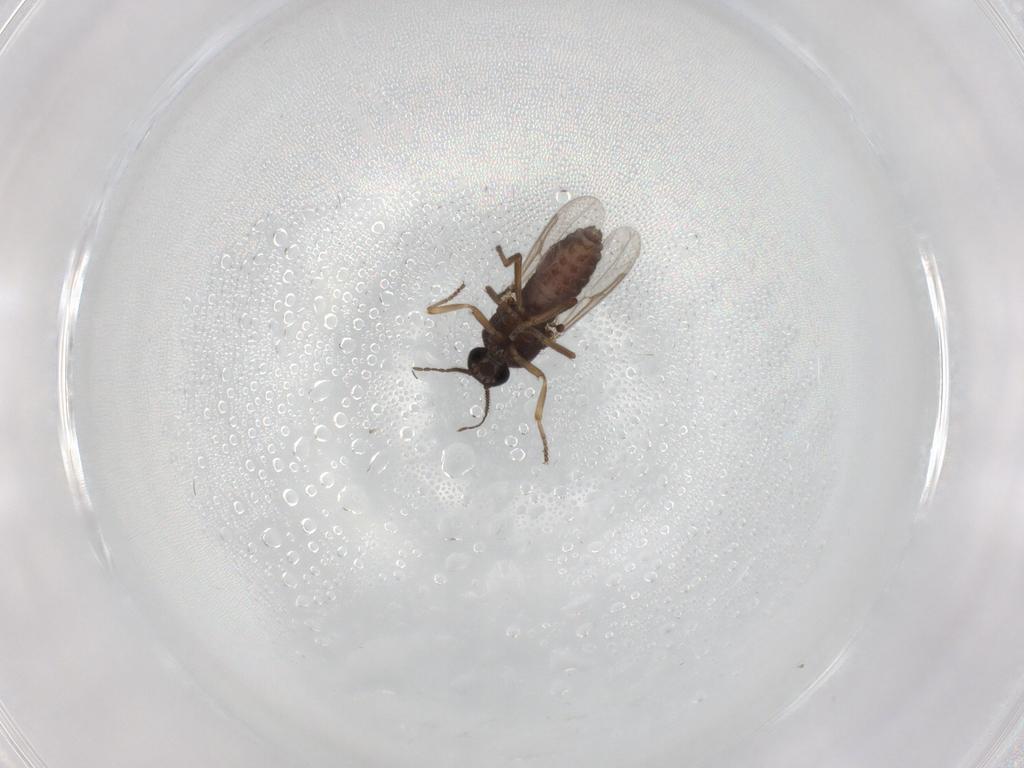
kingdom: Animalia
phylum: Arthropoda
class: Insecta
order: Diptera
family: Ceratopogonidae
